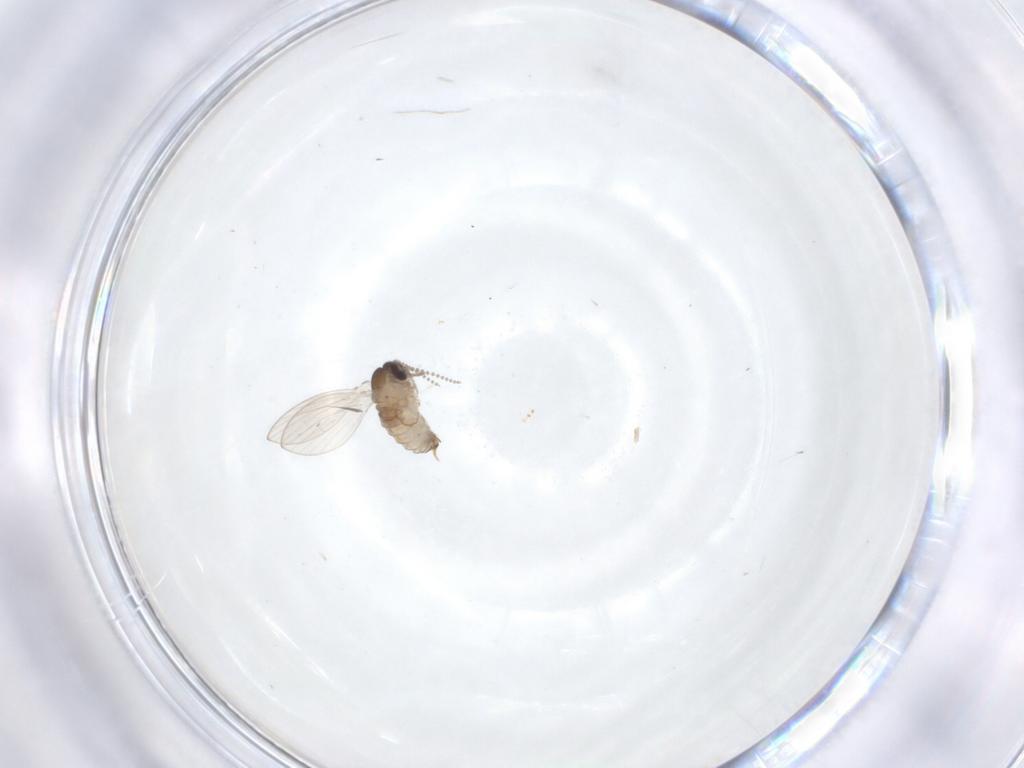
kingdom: Animalia
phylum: Arthropoda
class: Insecta
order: Diptera
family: Psychodidae
